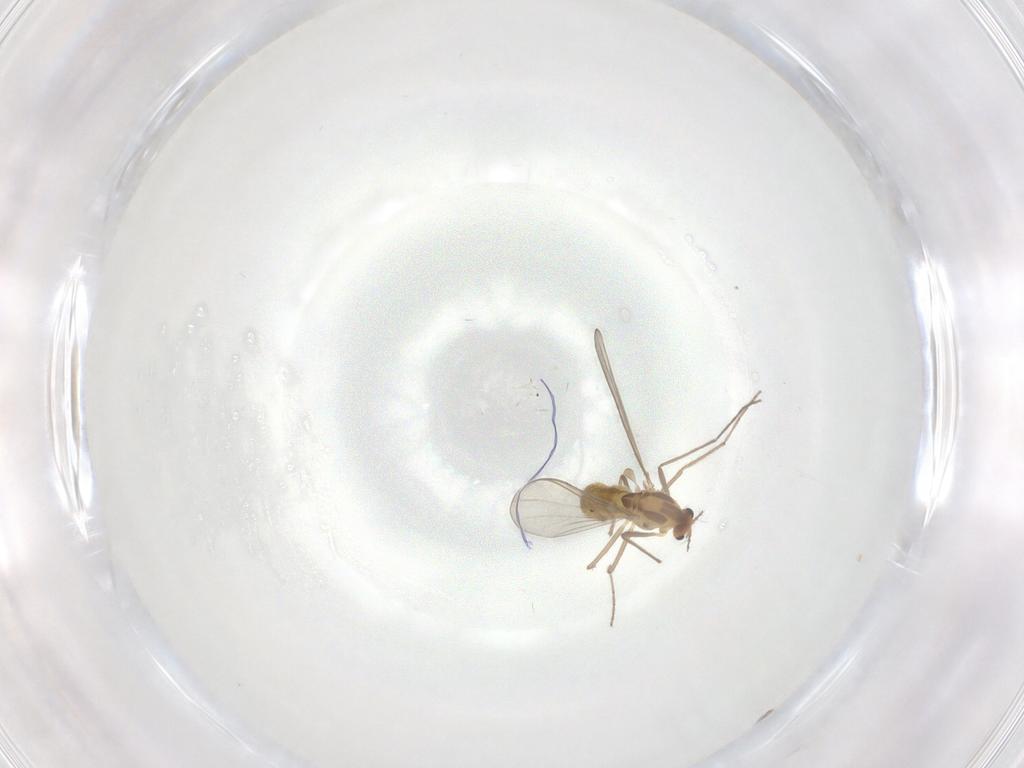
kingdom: Animalia
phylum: Arthropoda
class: Insecta
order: Diptera
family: Chironomidae
